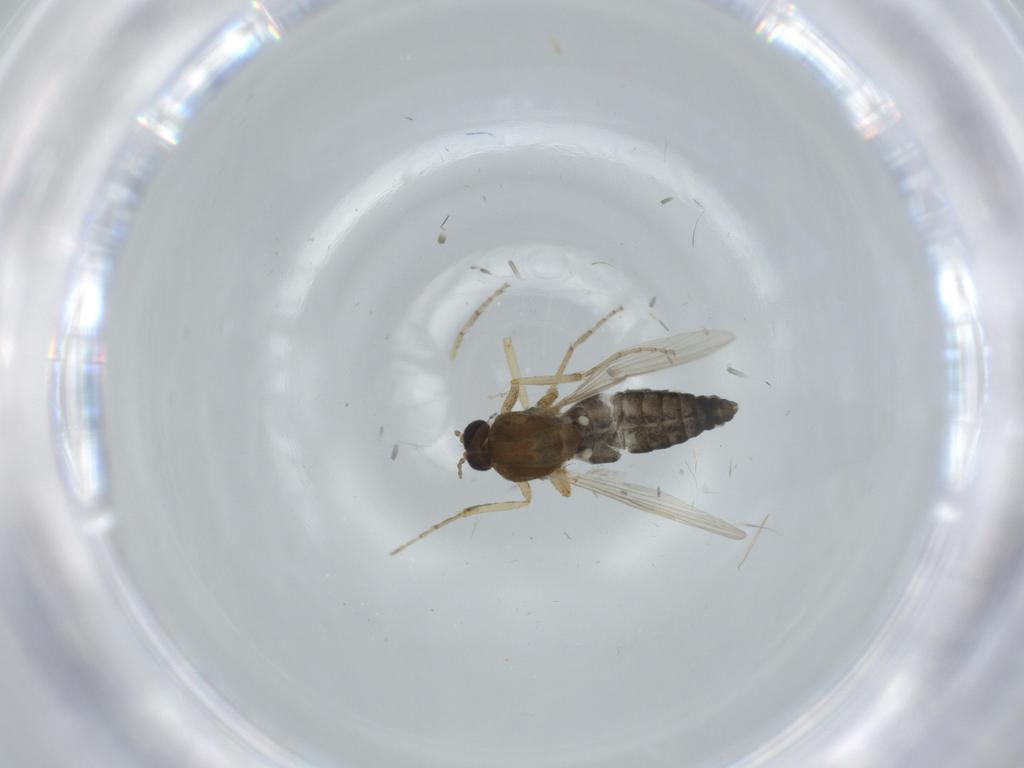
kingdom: Animalia
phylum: Arthropoda
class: Insecta
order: Diptera
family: Ceratopogonidae
